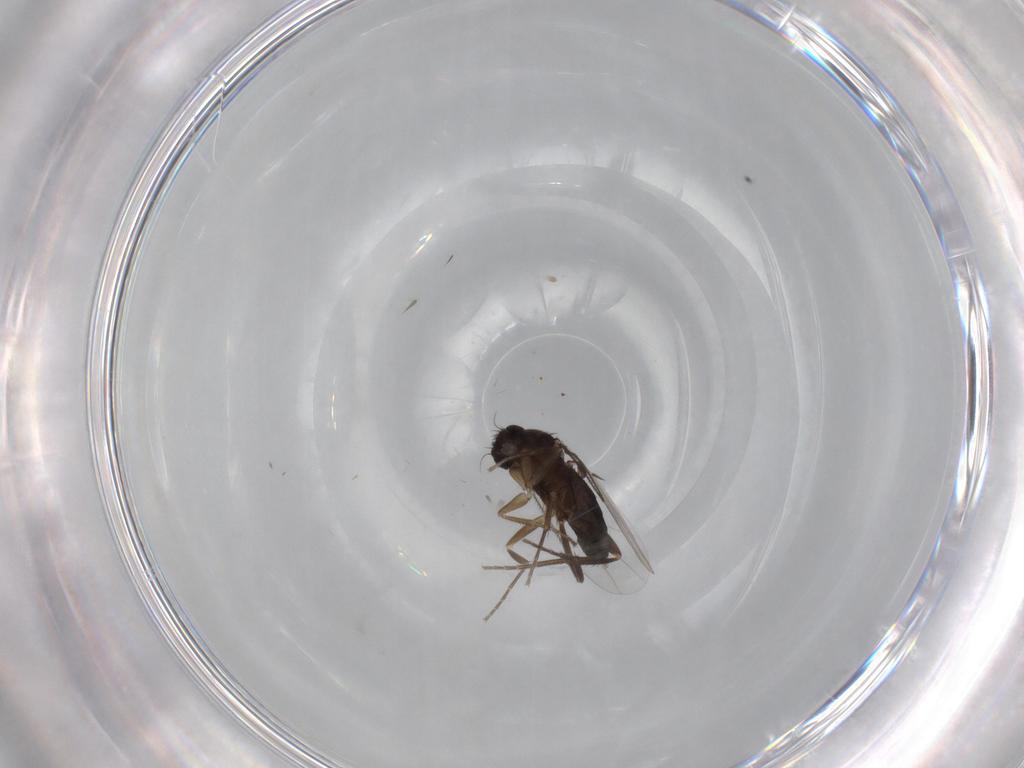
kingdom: Animalia
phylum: Arthropoda
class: Insecta
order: Diptera
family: Phoridae
